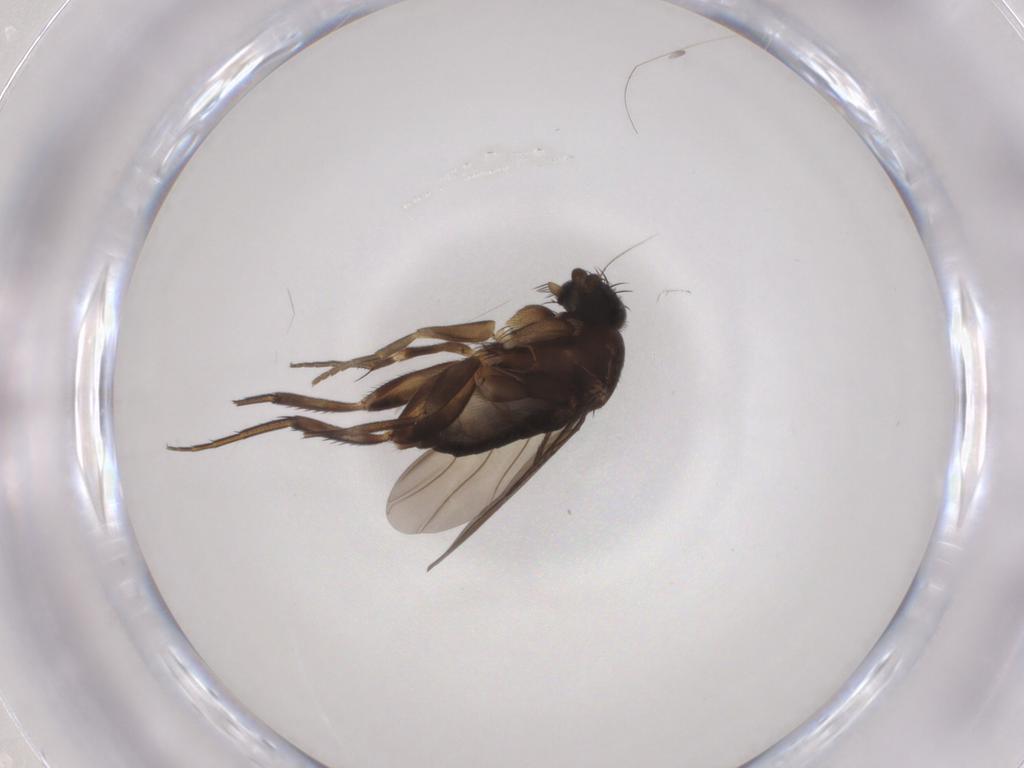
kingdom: Animalia
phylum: Arthropoda
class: Insecta
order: Diptera
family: Phoridae
